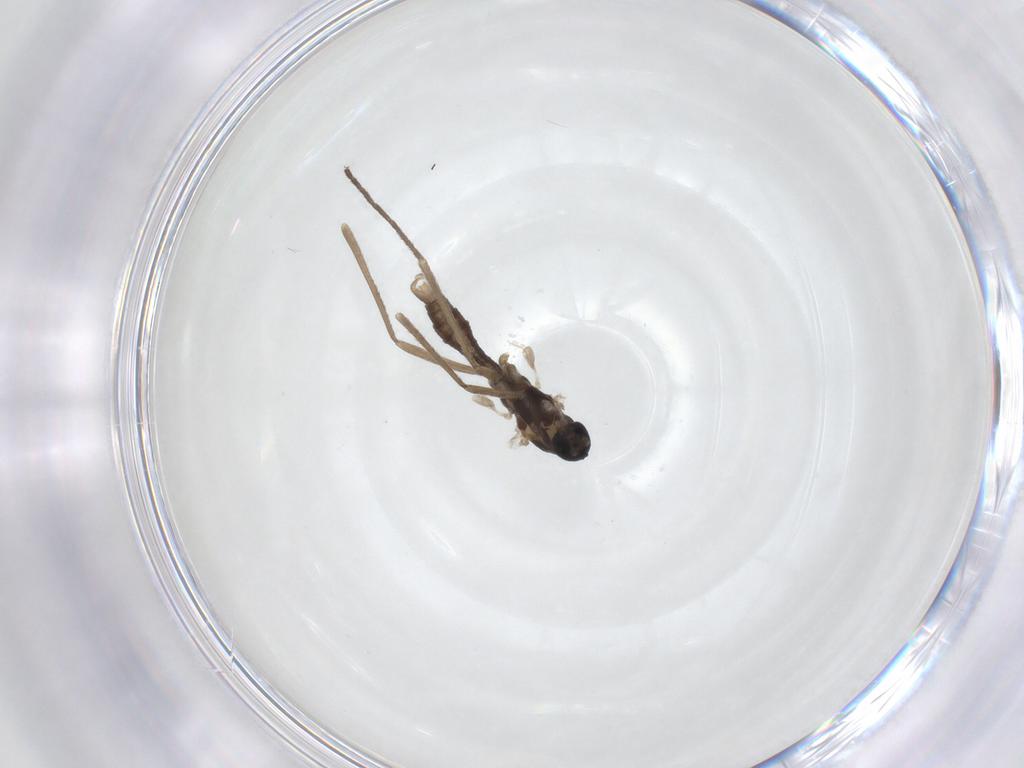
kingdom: Animalia
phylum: Arthropoda
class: Insecta
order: Diptera
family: Cecidomyiidae
